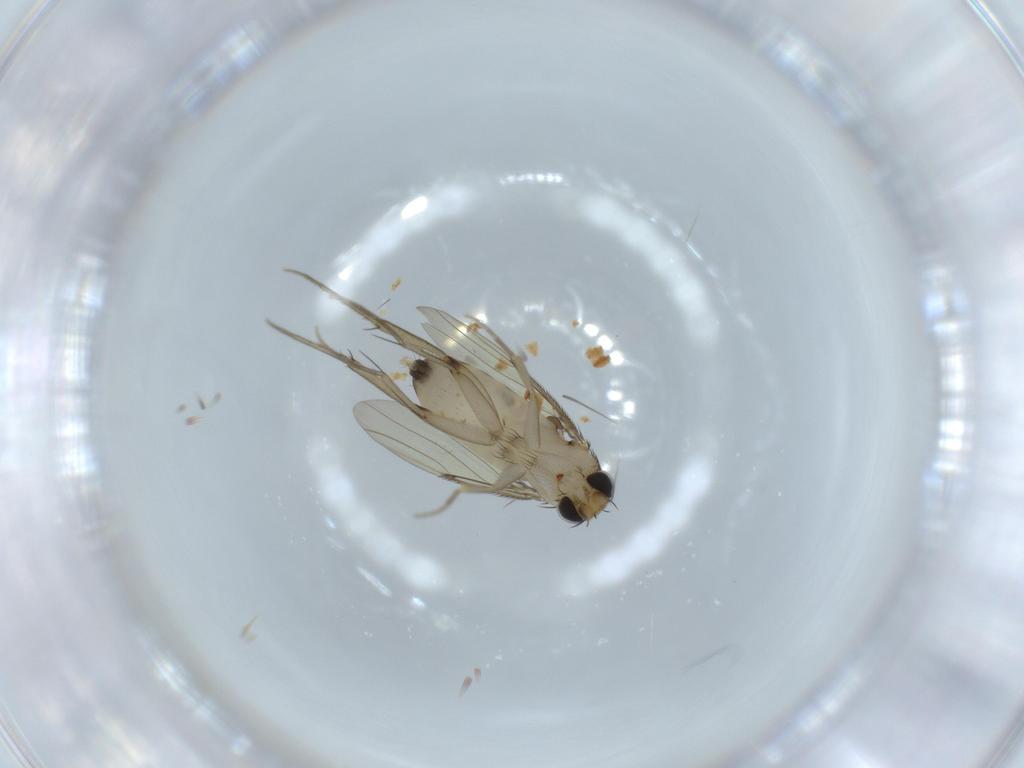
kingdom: Animalia
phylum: Arthropoda
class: Insecta
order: Diptera
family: Phoridae
